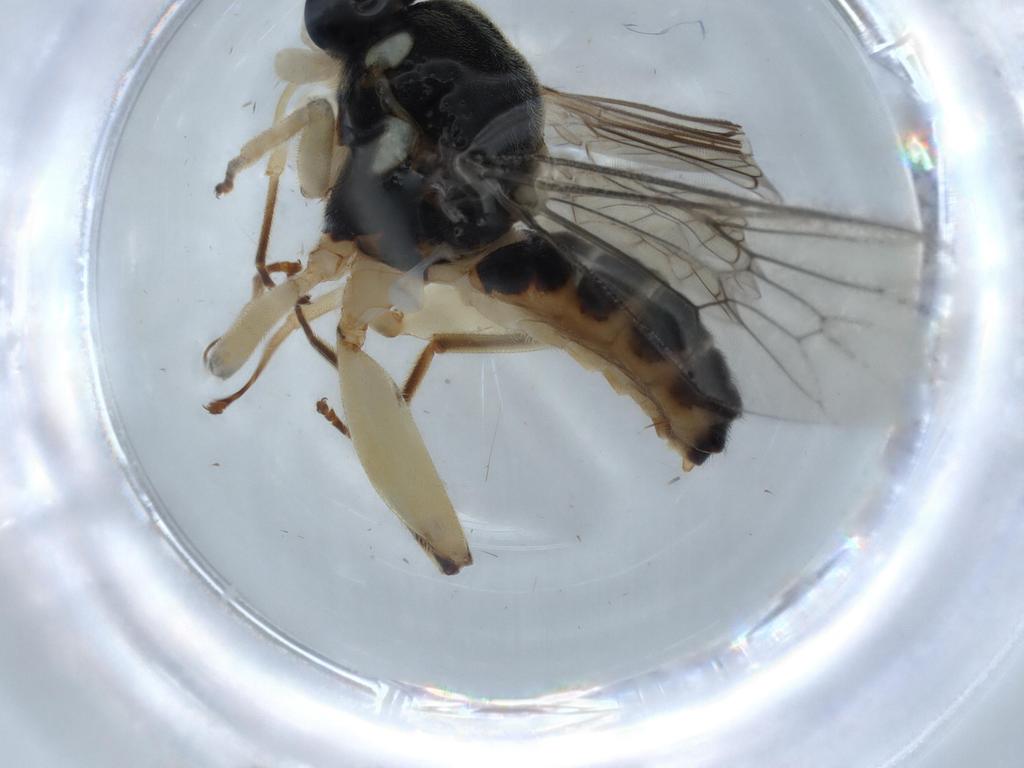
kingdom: Animalia
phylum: Arthropoda
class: Insecta
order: Diptera
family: Sciaridae
